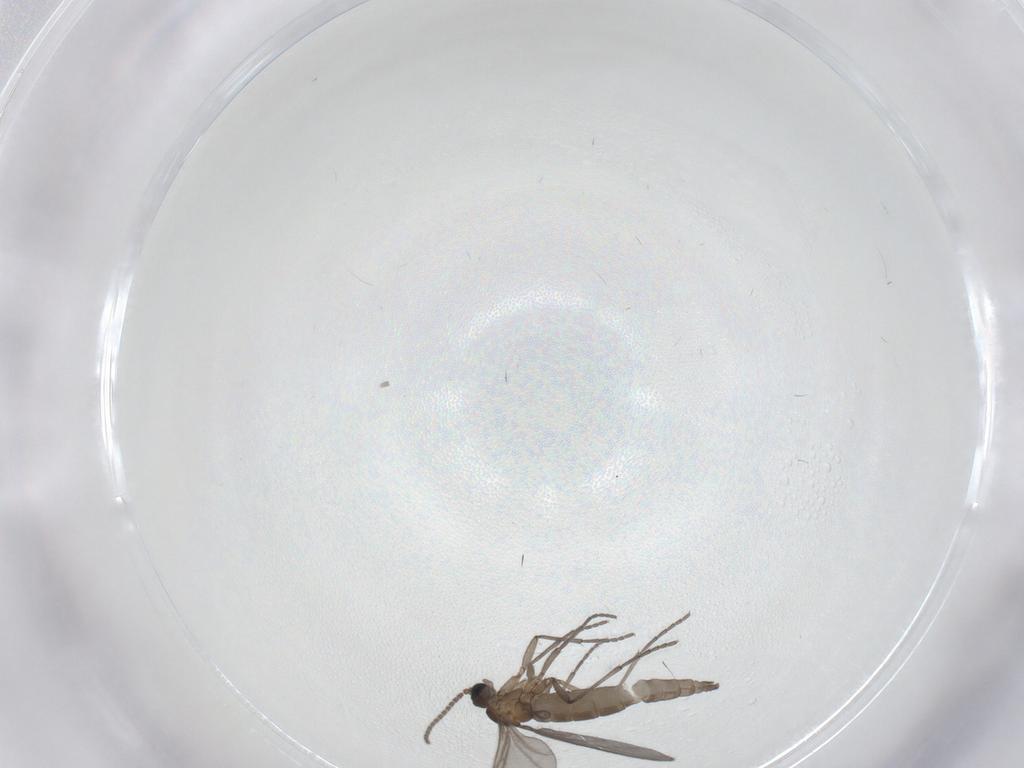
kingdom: Animalia
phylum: Arthropoda
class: Insecta
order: Diptera
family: Sciaridae
